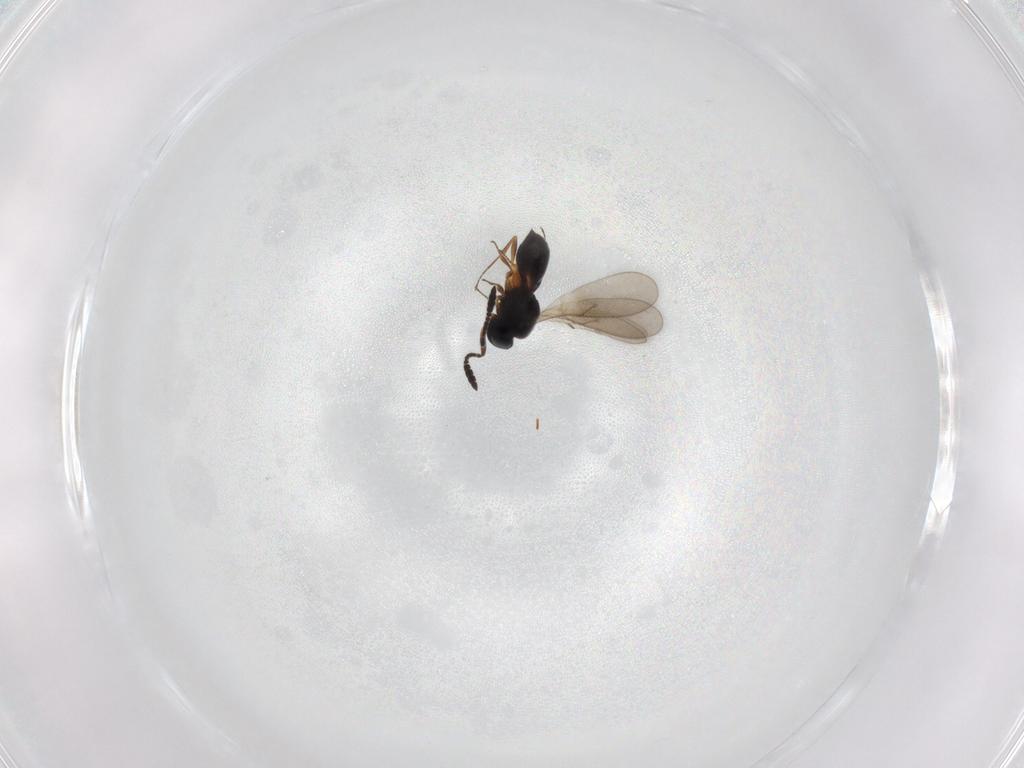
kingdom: Animalia
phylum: Arthropoda
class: Insecta
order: Hymenoptera
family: Scelionidae
